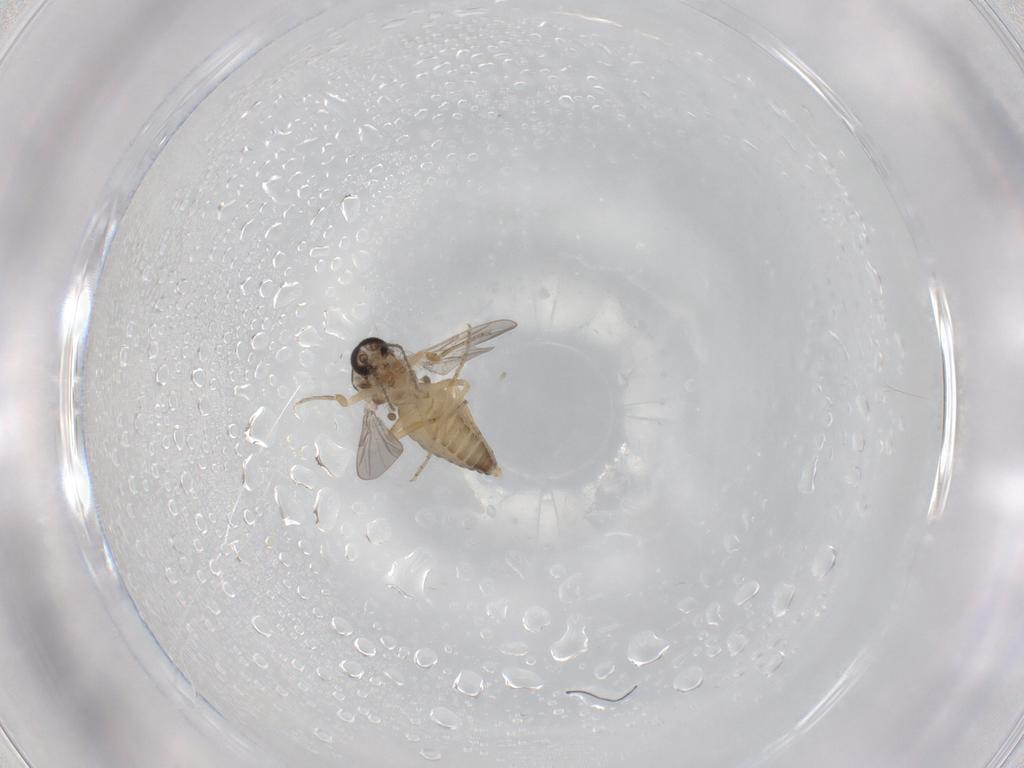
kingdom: Animalia
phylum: Arthropoda
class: Insecta
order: Diptera
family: Ceratopogonidae
